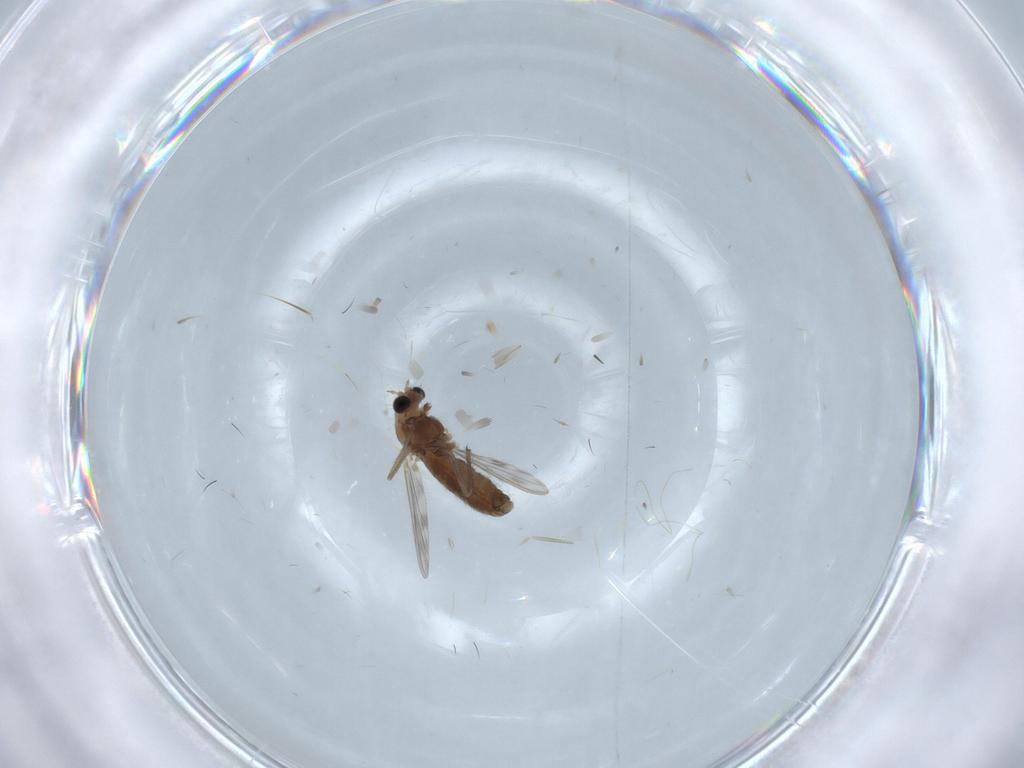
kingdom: Animalia
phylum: Arthropoda
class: Insecta
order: Diptera
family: Chironomidae
